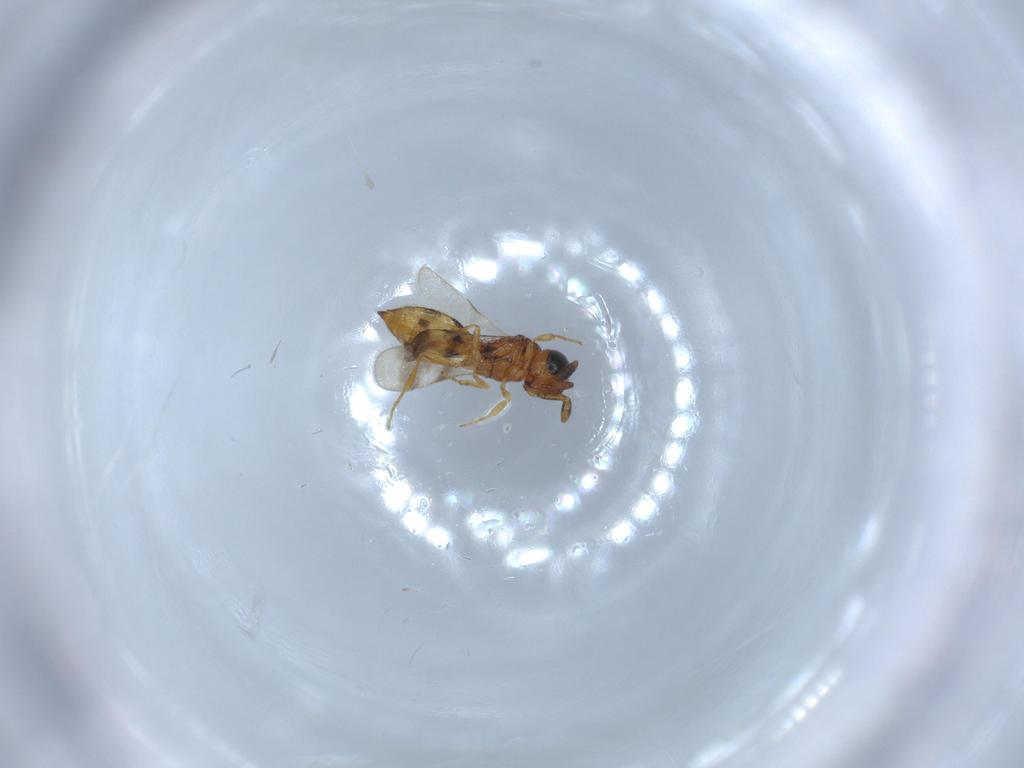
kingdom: Animalia
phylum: Arthropoda
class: Insecta
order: Hymenoptera
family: Scelionidae
